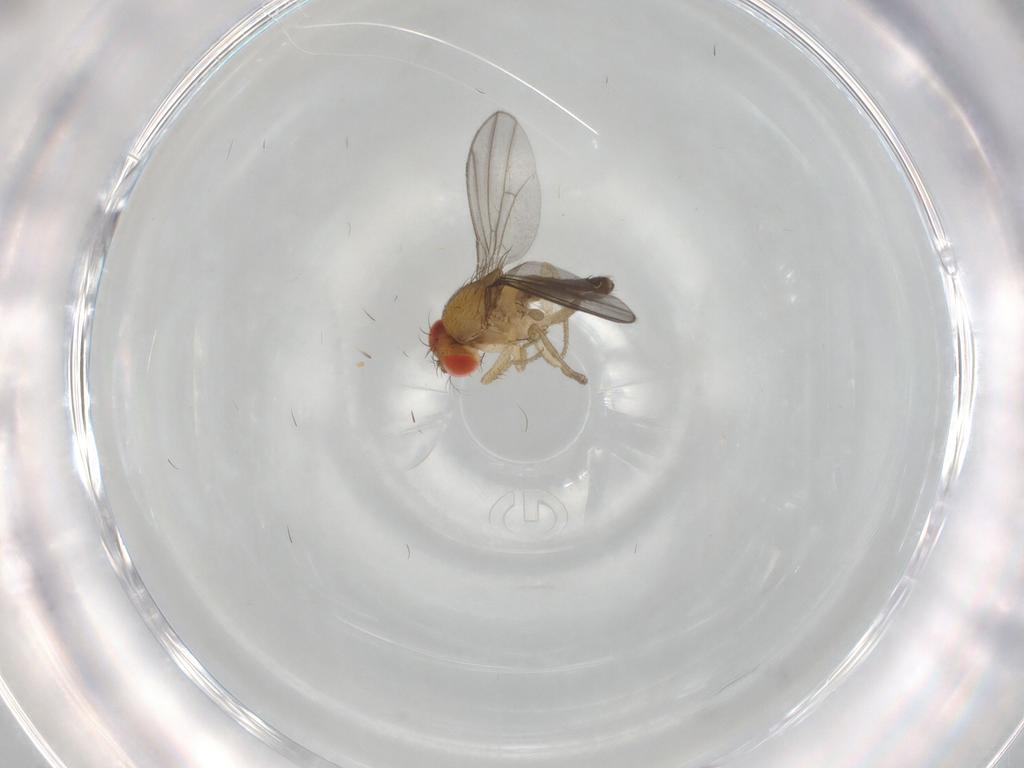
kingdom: Animalia
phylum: Arthropoda
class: Insecta
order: Diptera
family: Drosophilidae
